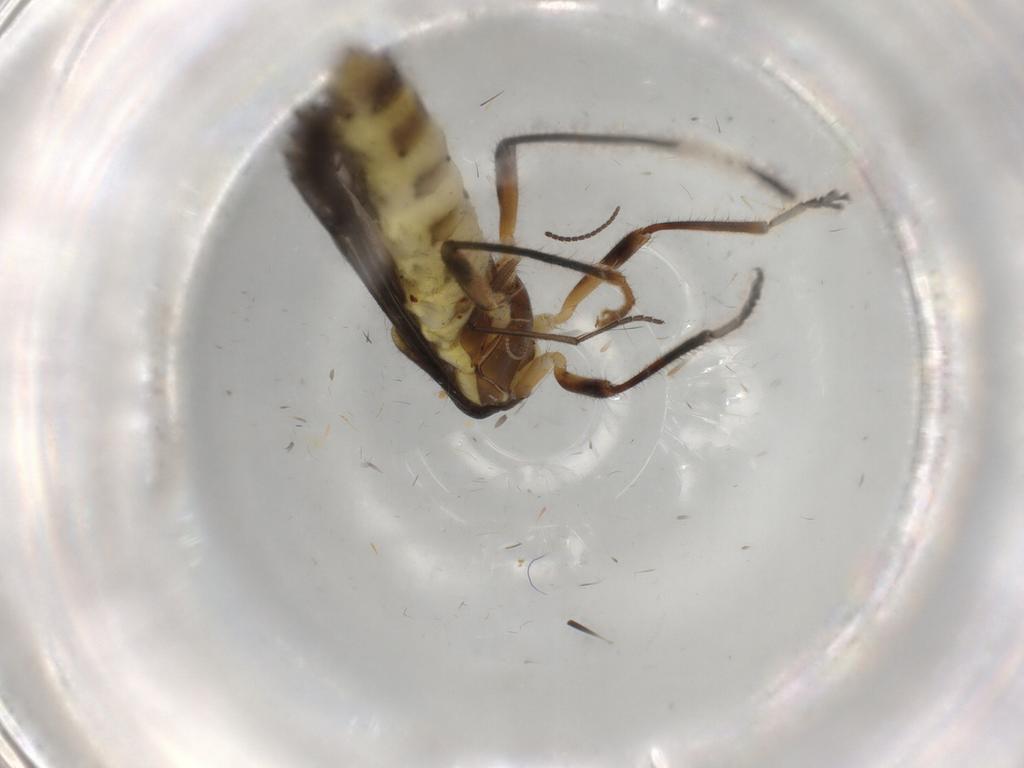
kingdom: Animalia
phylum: Arthropoda
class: Insecta
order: Coleoptera
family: Cantharidae
